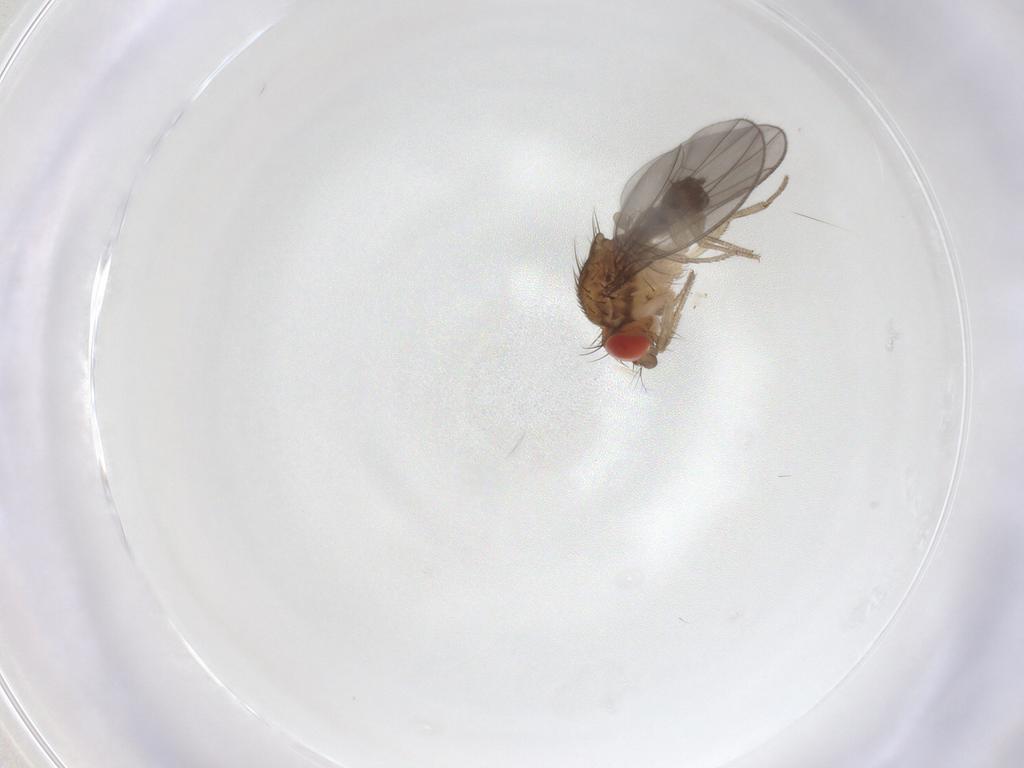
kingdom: Animalia
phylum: Arthropoda
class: Insecta
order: Diptera
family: Drosophilidae
